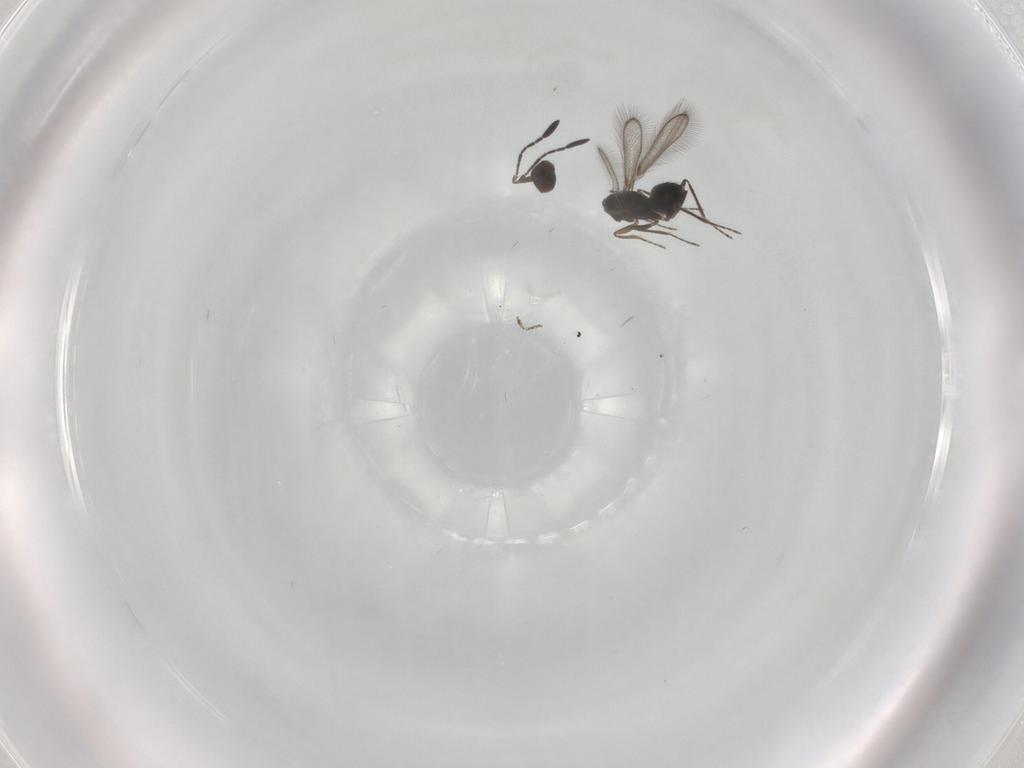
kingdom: Animalia
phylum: Arthropoda
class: Insecta
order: Hymenoptera
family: Mymaridae
